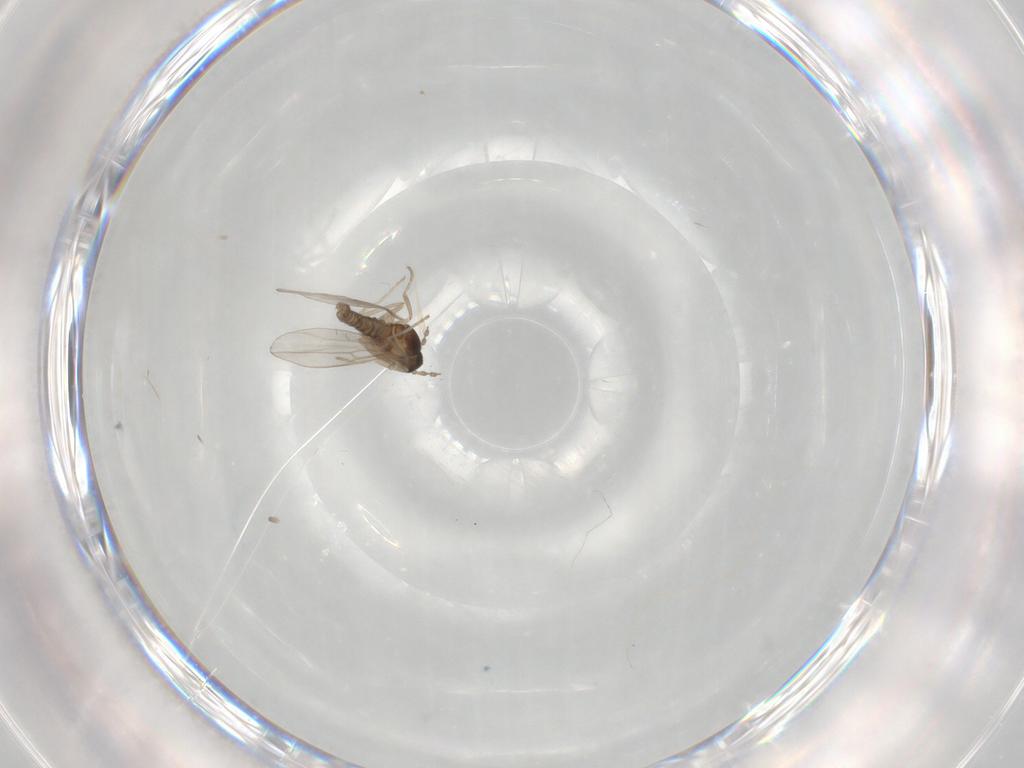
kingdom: Animalia
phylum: Arthropoda
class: Insecta
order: Diptera
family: Cecidomyiidae
